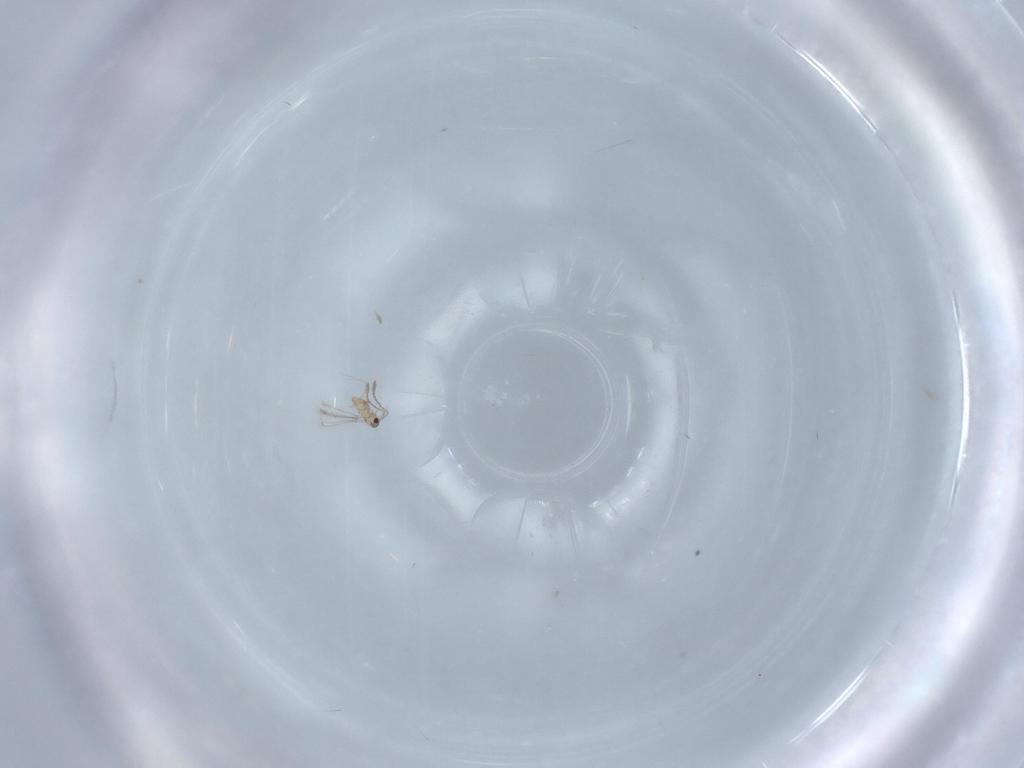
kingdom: Animalia
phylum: Arthropoda
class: Insecta
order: Hymenoptera
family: Mymaridae
